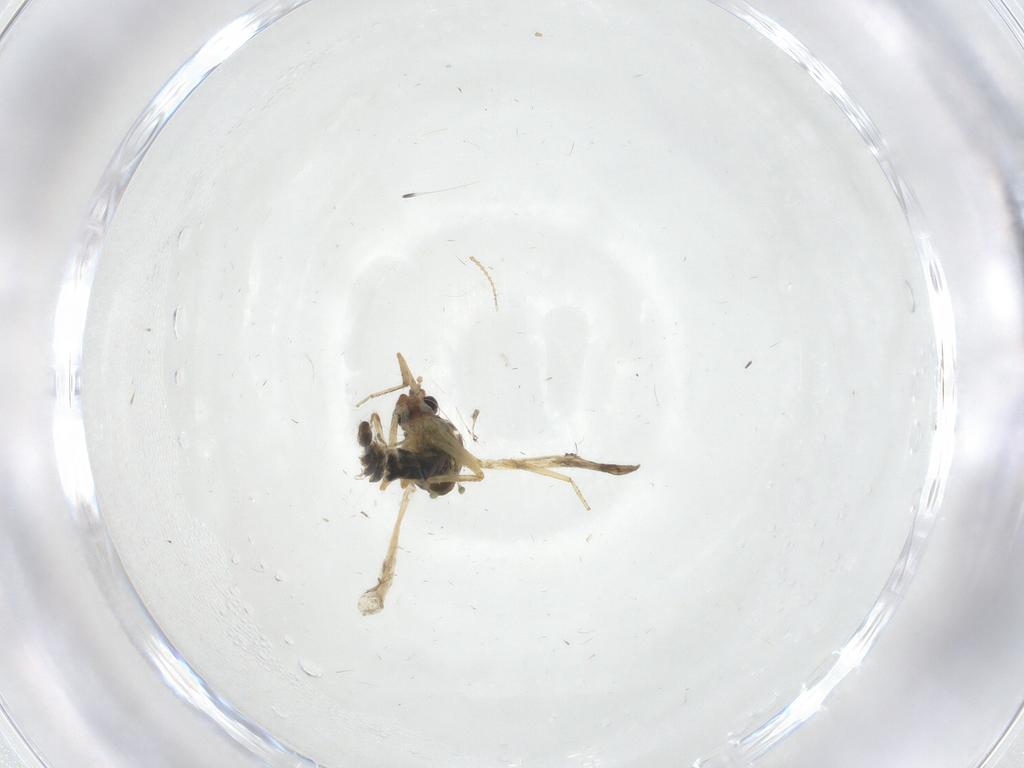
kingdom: Animalia
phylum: Arthropoda
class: Insecta
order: Diptera
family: Ceratopogonidae
